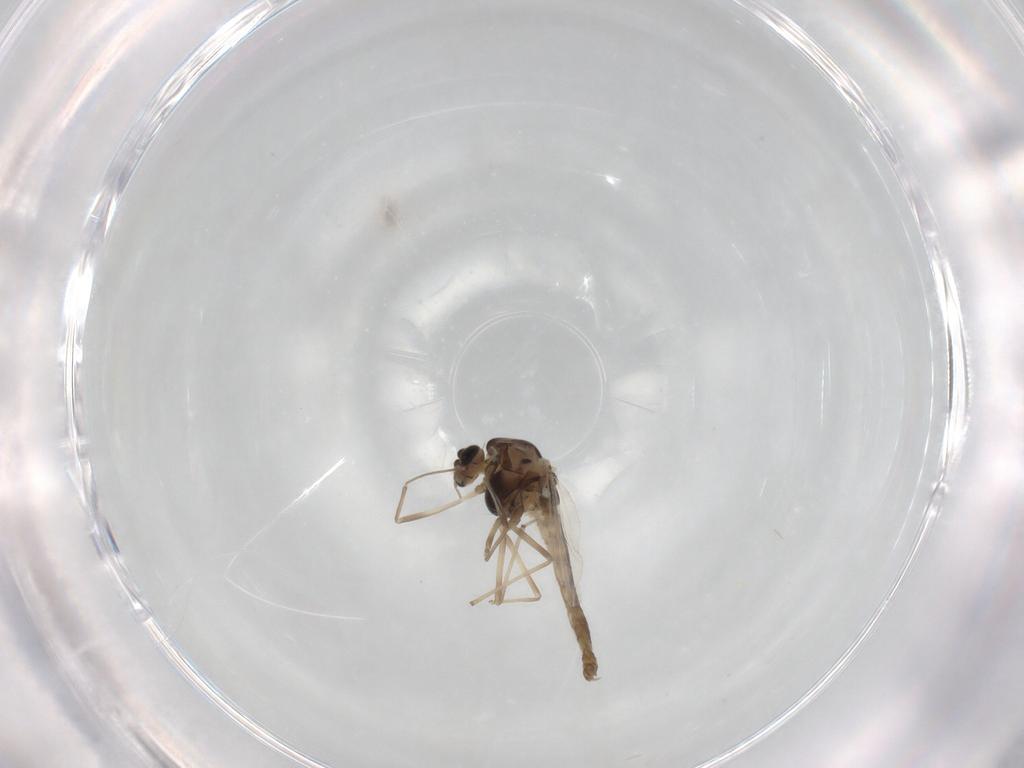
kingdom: Animalia
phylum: Arthropoda
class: Insecta
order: Diptera
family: Chironomidae
